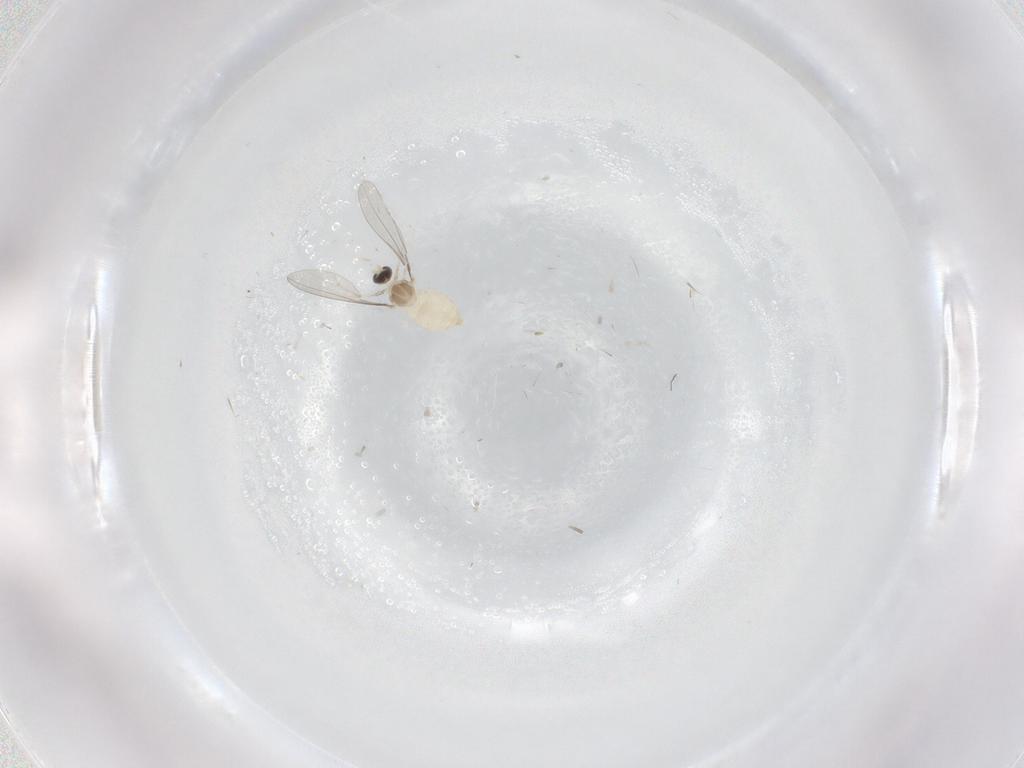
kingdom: Animalia
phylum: Arthropoda
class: Insecta
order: Diptera
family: Cecidomyiidae
